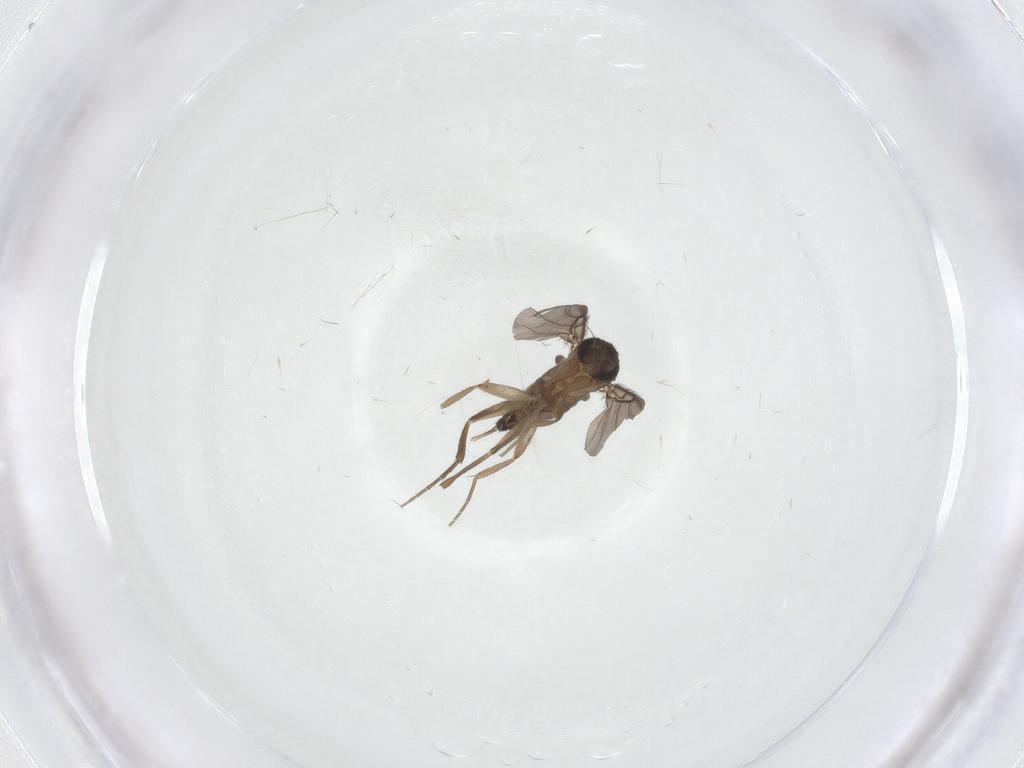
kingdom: Animalia
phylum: Arthropoda
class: Insecta
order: Diptera
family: Phoridae
